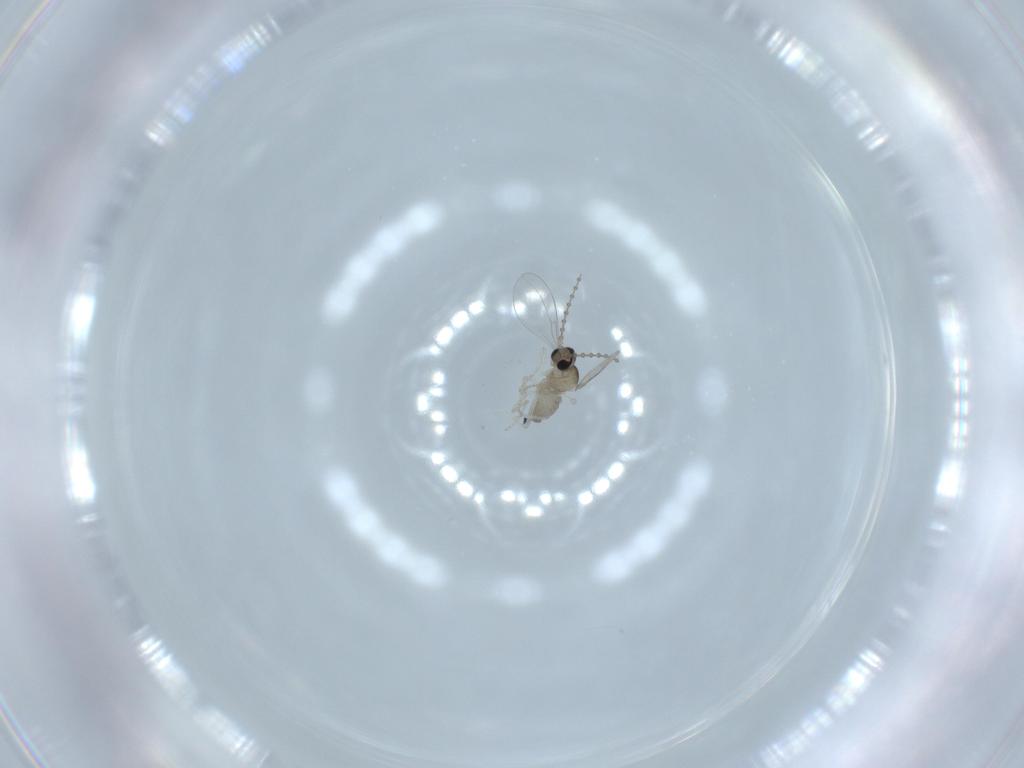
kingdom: Animalia
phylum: Arthropoda
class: Insecta
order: Diptera
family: Cecidomyiidae
